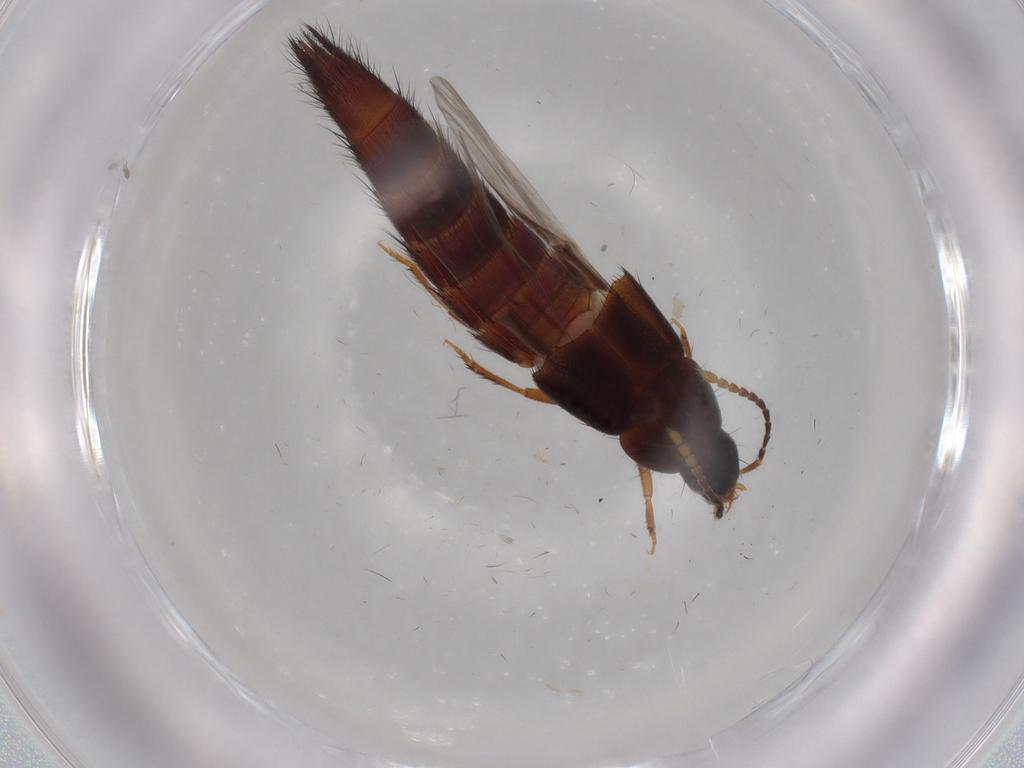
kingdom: Animalia
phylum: Arthropoda
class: Insecta
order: Coleoptera
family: Staphylinidae
